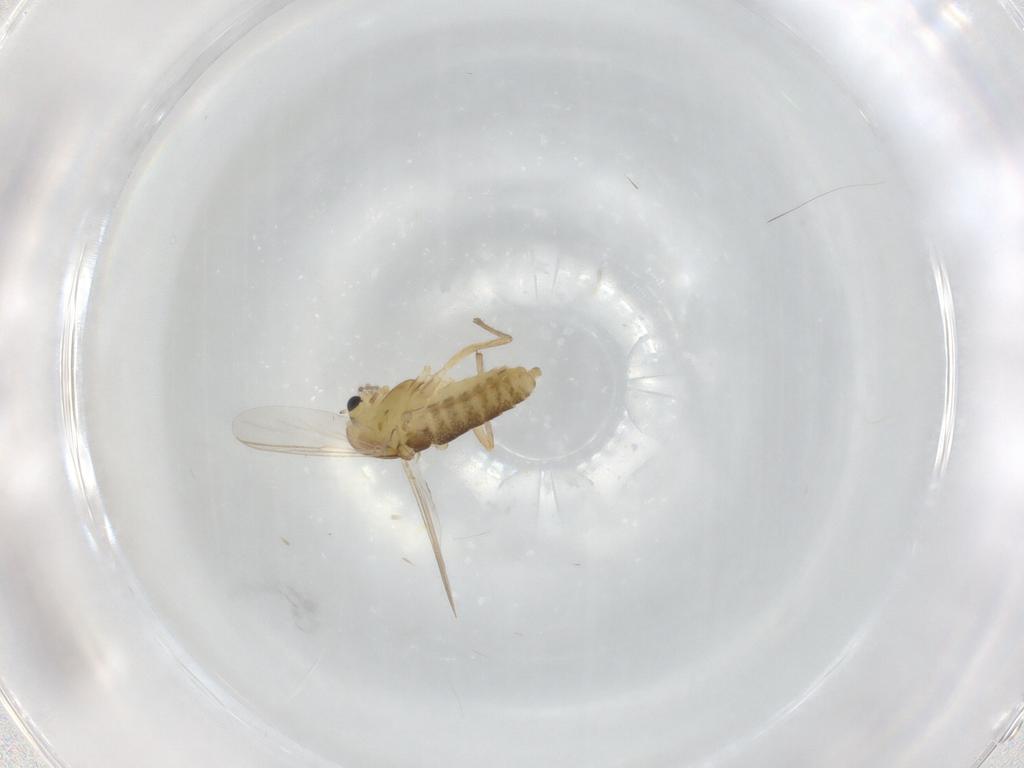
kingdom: Animalia
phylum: Arthropoda
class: Insecta
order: Diptera
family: Chironomidae
